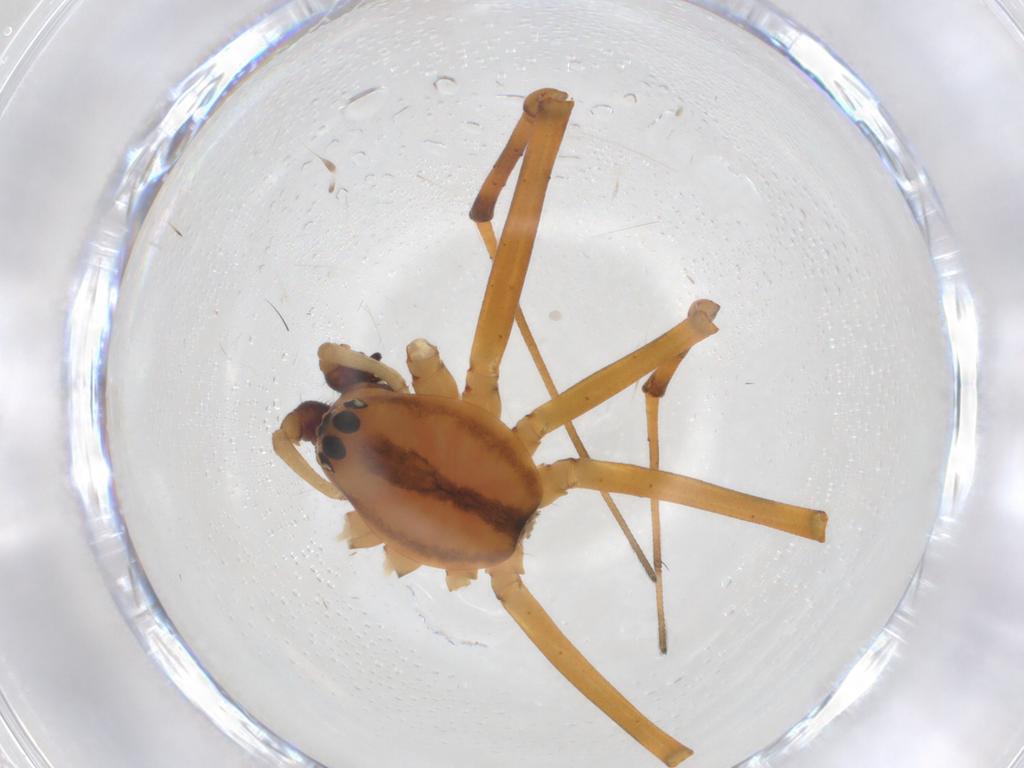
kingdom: Animalia
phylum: Arthropoda
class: Arachnida
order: Araneae
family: Linyphiidae
